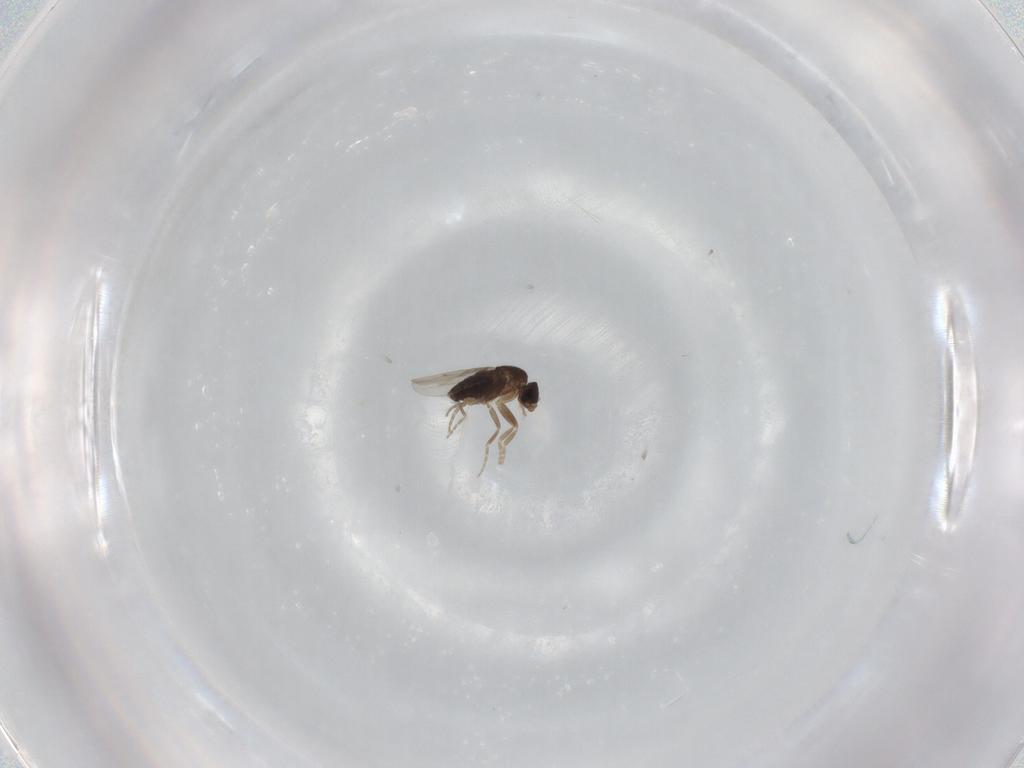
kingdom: Animalia
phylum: Arthropoda
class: Insecta
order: Diptera
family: Phoridae
